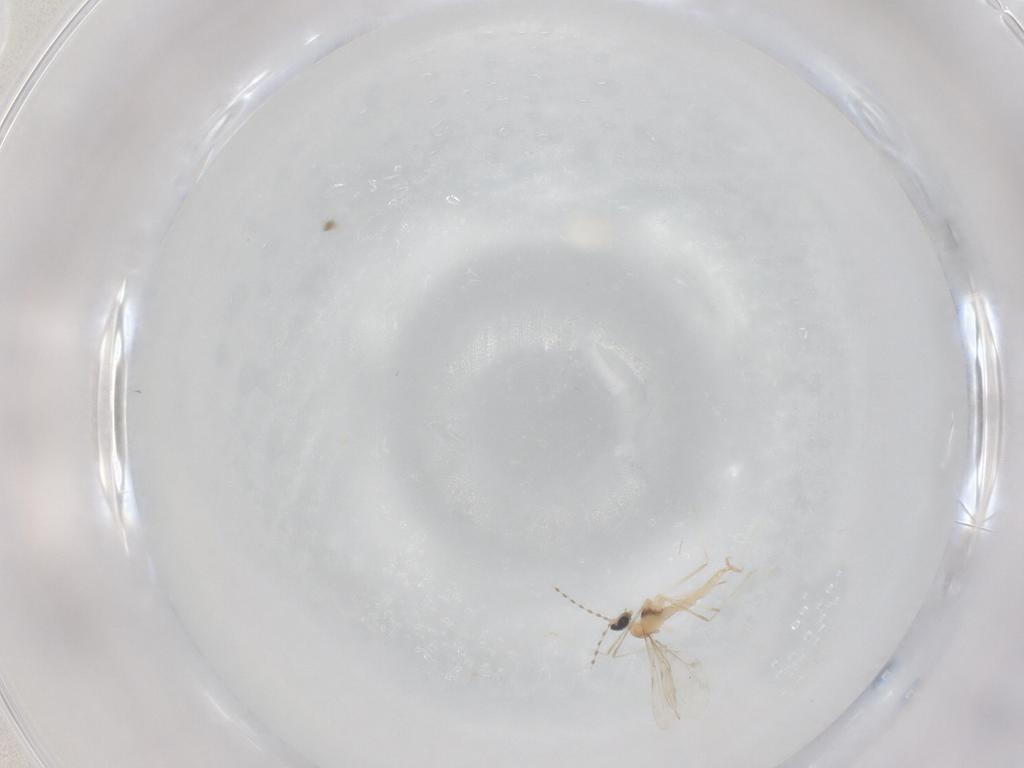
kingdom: Animalia
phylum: Arthropoda
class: Insecta
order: Diptera
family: Cecidomyiidae
